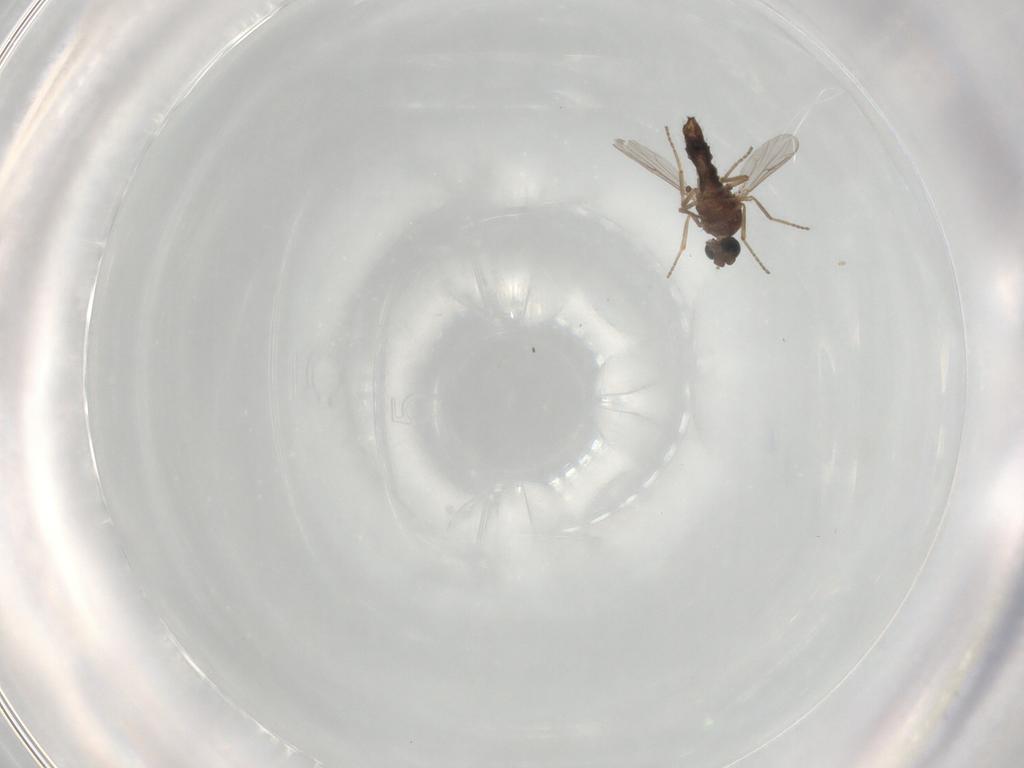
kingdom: Animalia
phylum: Arthropoda
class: Insecta
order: Diptera
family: Ceratopogonidae
